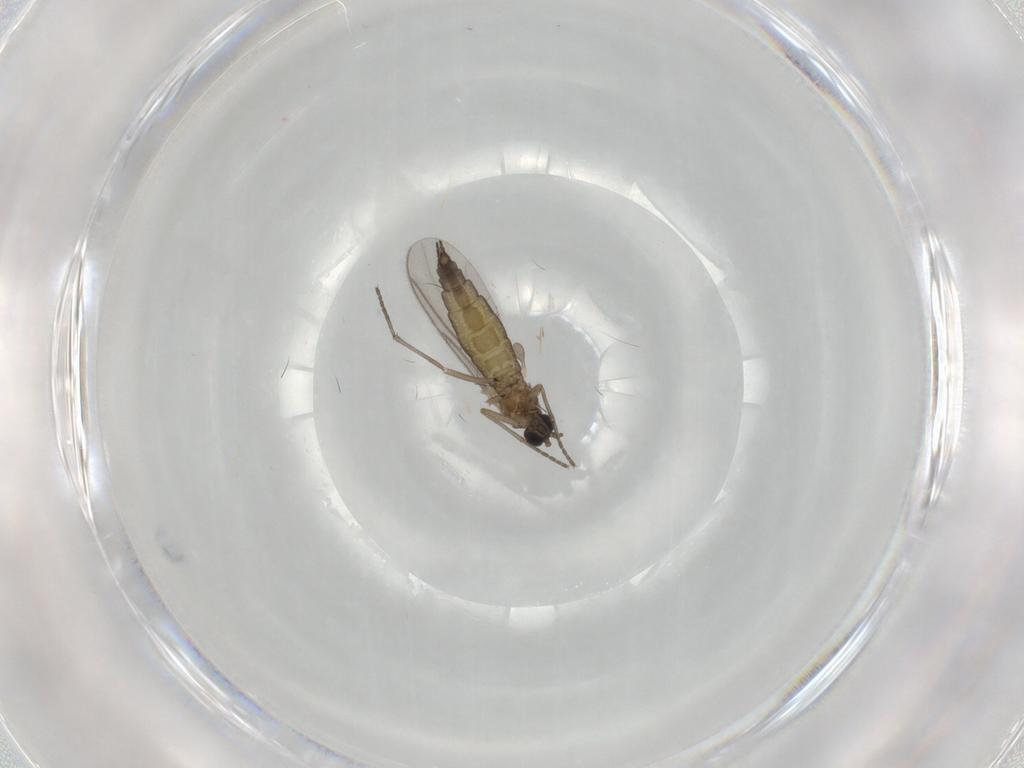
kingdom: Animalia
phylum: Arthropoda
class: Insecta
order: Diptera
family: Sciaridae
